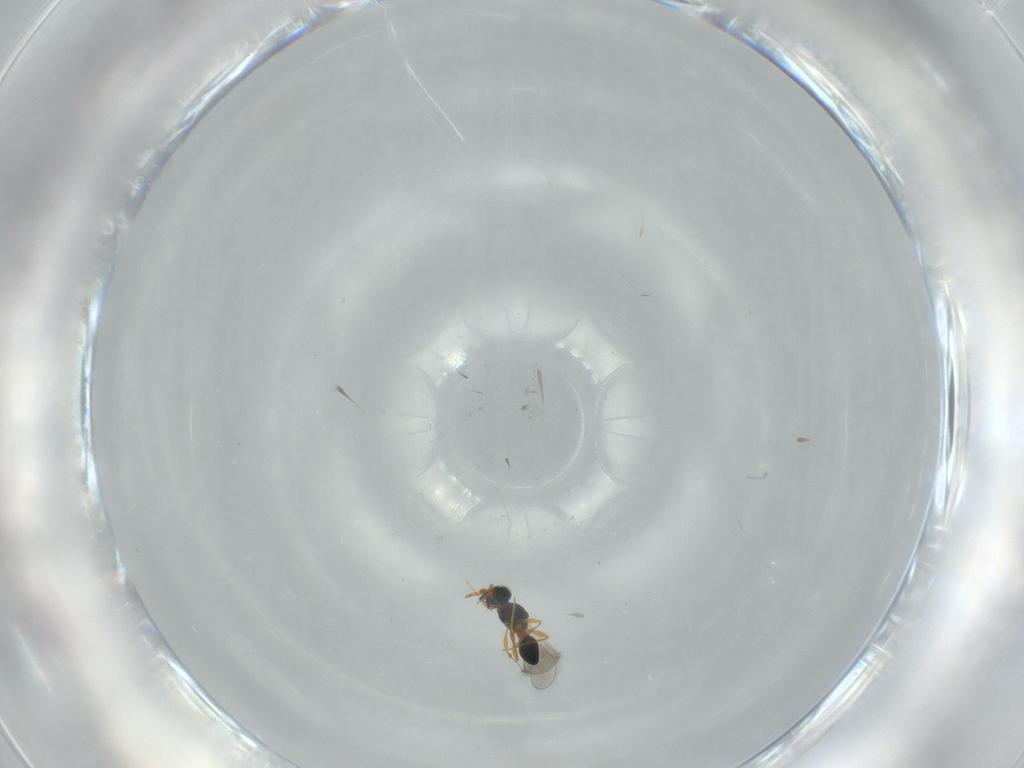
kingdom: Animalia
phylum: Arthropoda
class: Insecta
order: Hymenoptera
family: Platygastridae
